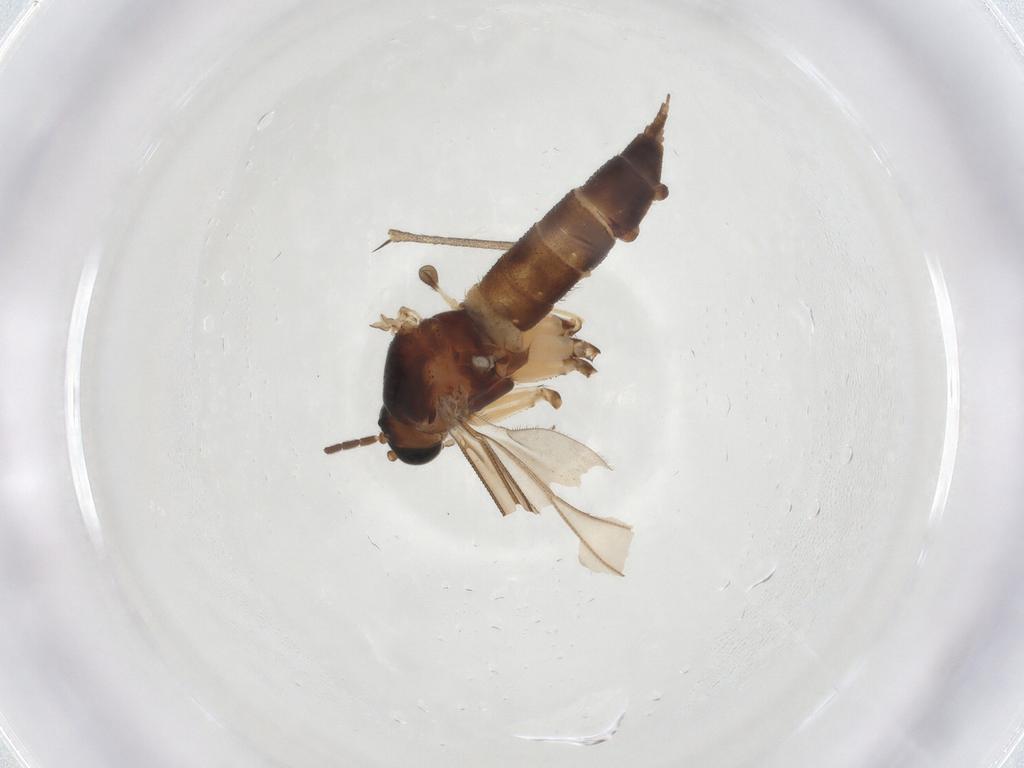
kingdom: Animalia
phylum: Arthropoda
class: Insecta
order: Diptera
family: Sciaridae
